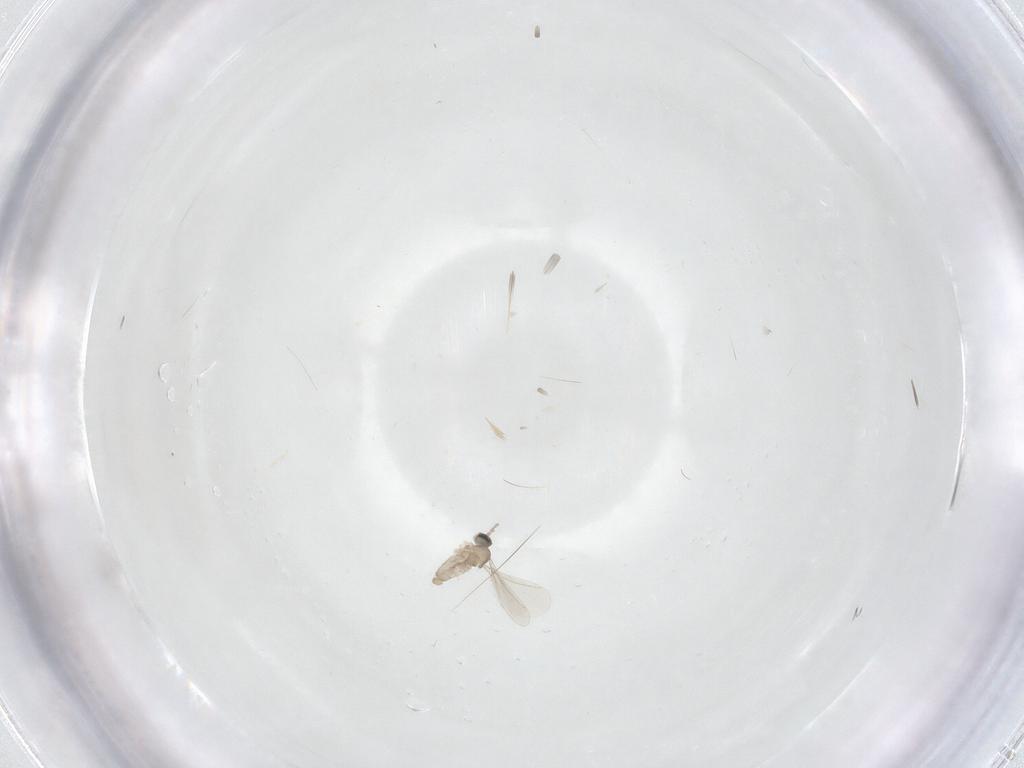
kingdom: Animalia
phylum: Arthropoda
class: Insecta
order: Diptera
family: Cecidomyiidae
